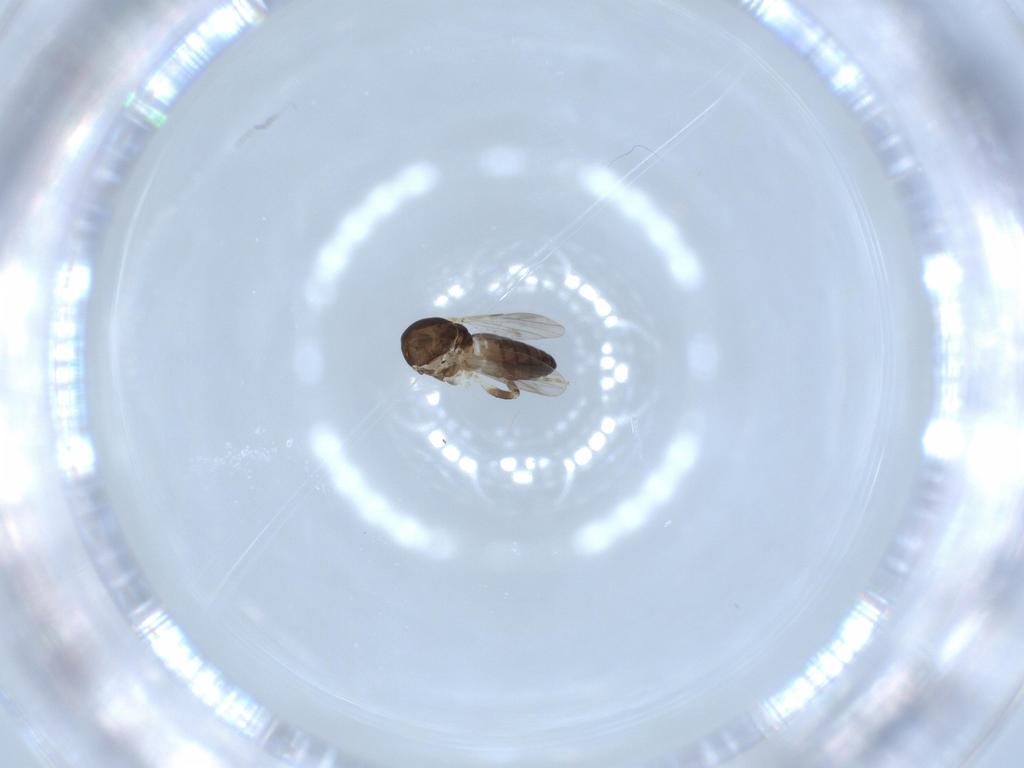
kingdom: Animalia
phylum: Arthropoda
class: Insecta
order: Diptera
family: Ceratopogonidae
